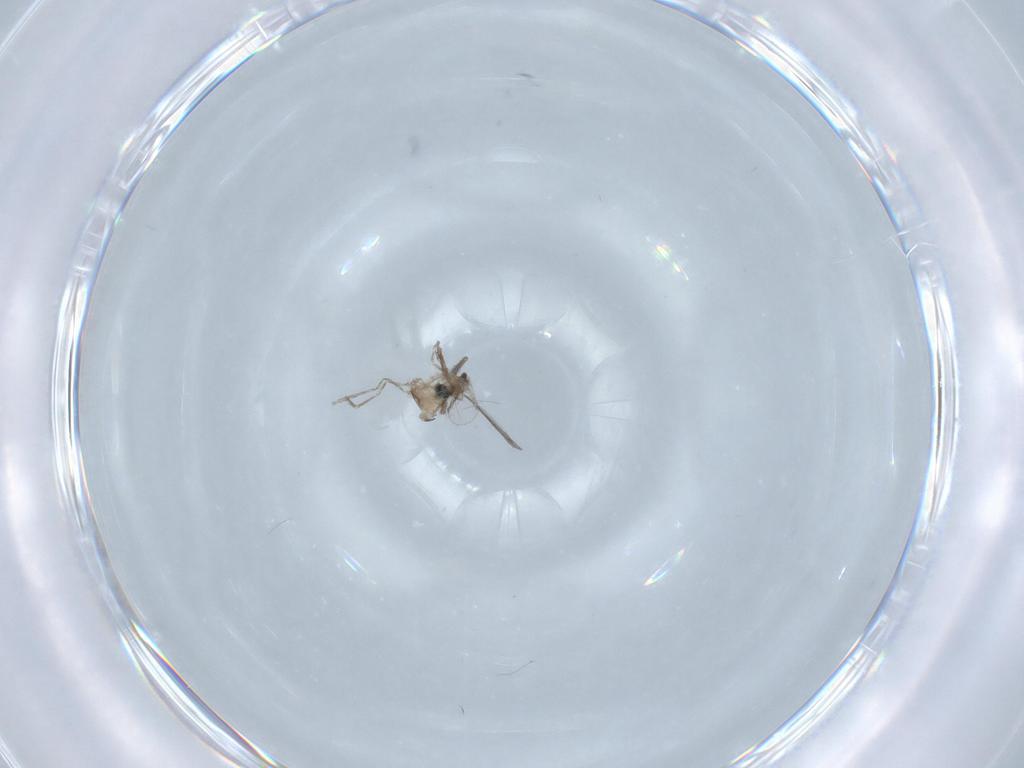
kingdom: Animalia
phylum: Arthropoda
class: Insecta
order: Diptera
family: Cecidomyiidae
